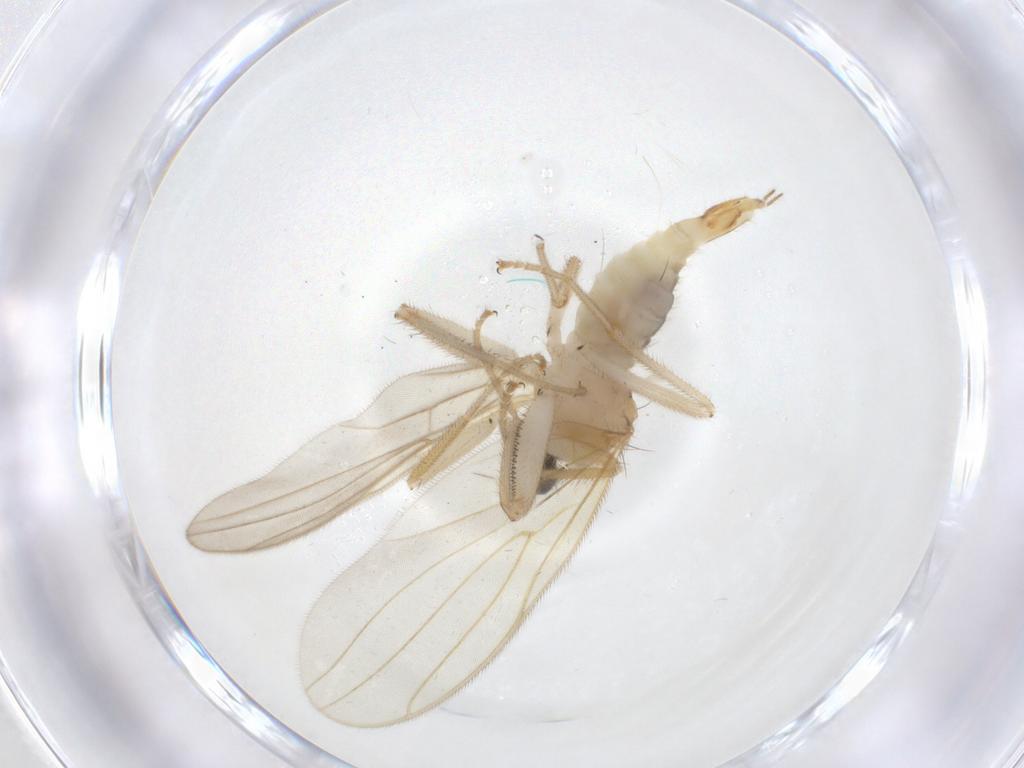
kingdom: Animalia
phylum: Arthropoda
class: Insecta
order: Diptera
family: Hybotidae
